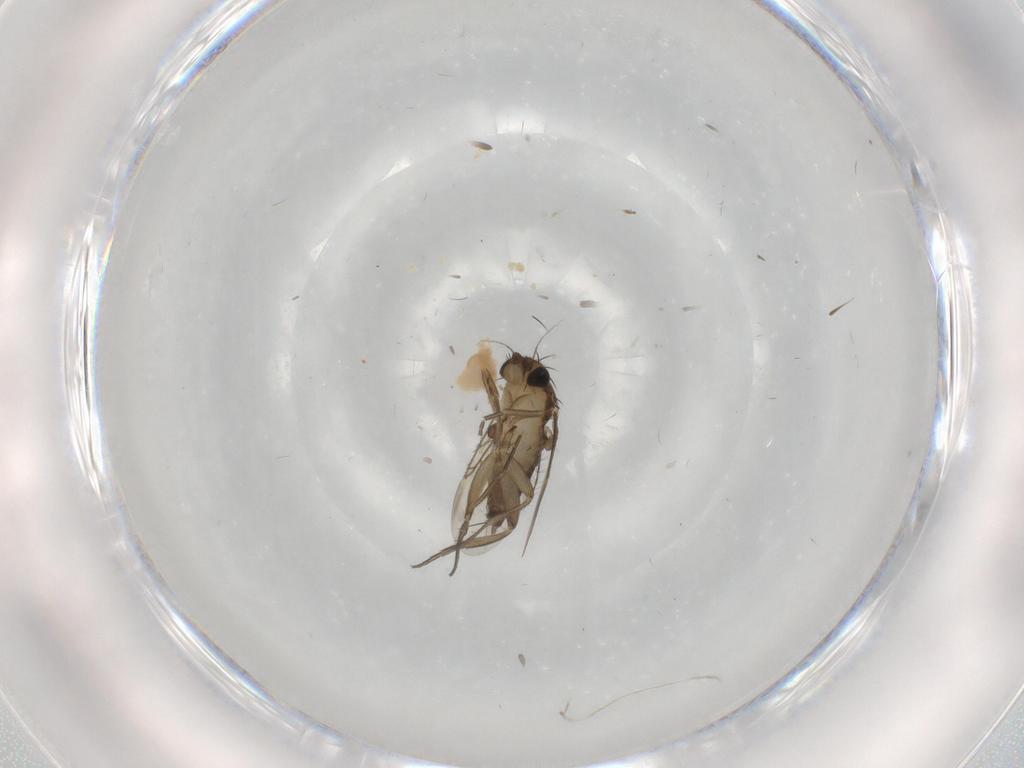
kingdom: Animalia
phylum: Arthropoda
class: Insecta
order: Diptera
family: Phoridae
